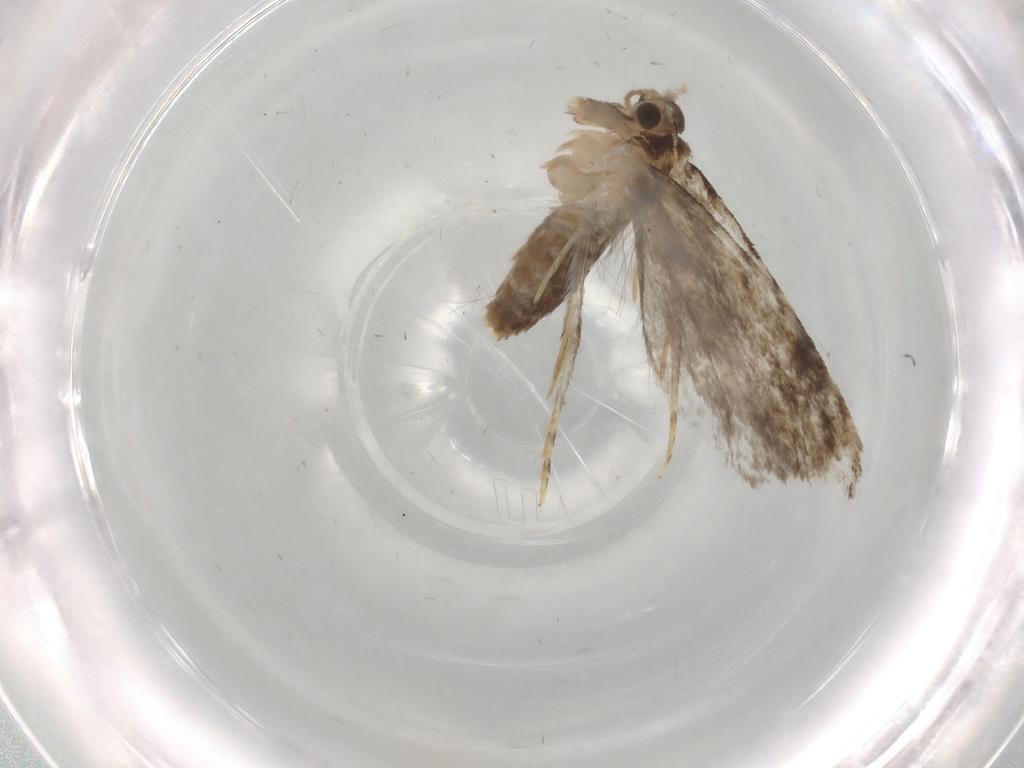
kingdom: Animalia
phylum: Arthropoda
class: Insecta
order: Lepidoptera
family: Tineidae
